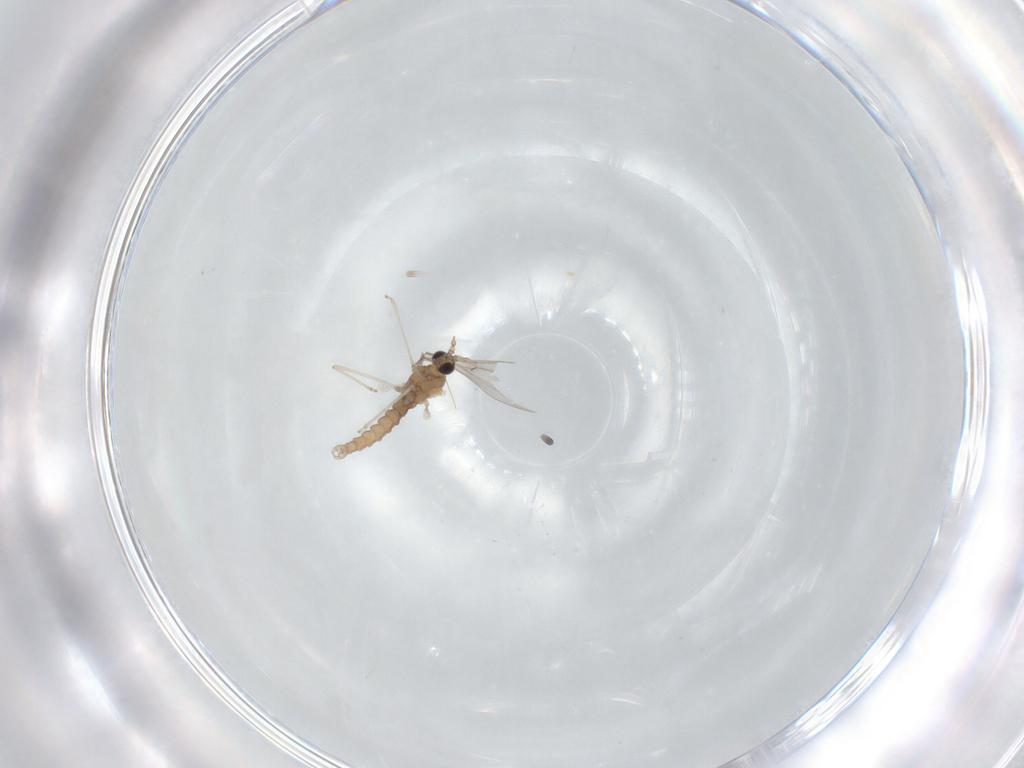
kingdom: Animalia
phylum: Arthropoda
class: Insecta
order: Diptera
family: Cecidomyiidae
